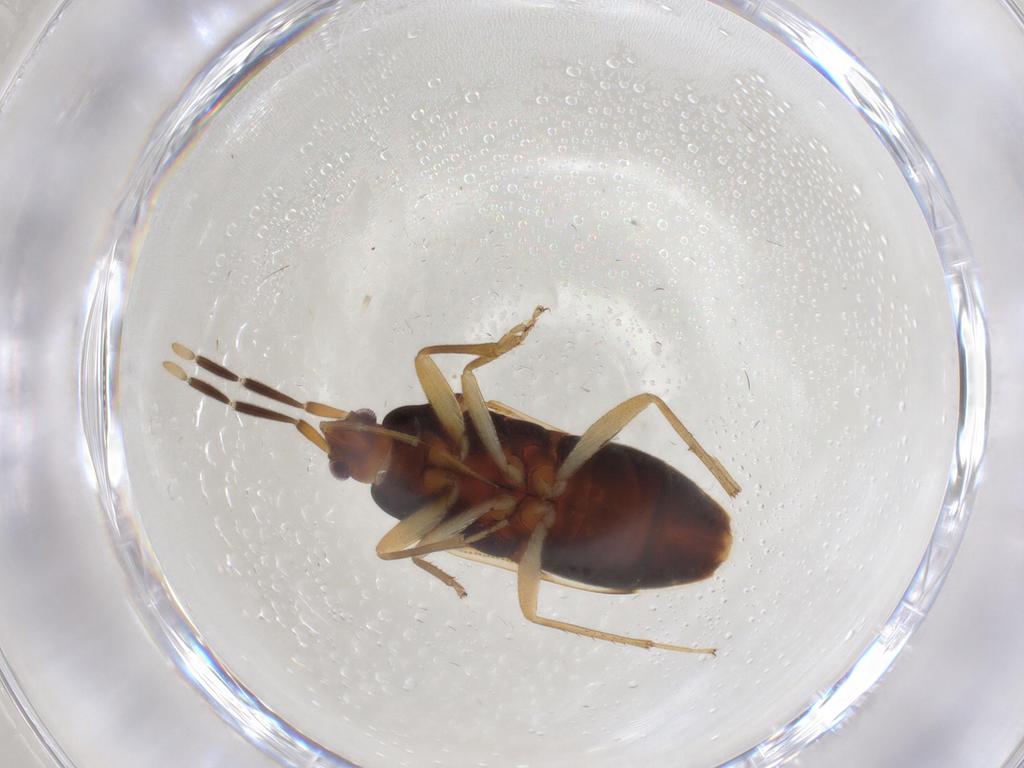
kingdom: Animalia
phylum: Arthropoda
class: Insecta
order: Hemiptera
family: Rhyparochromidae
